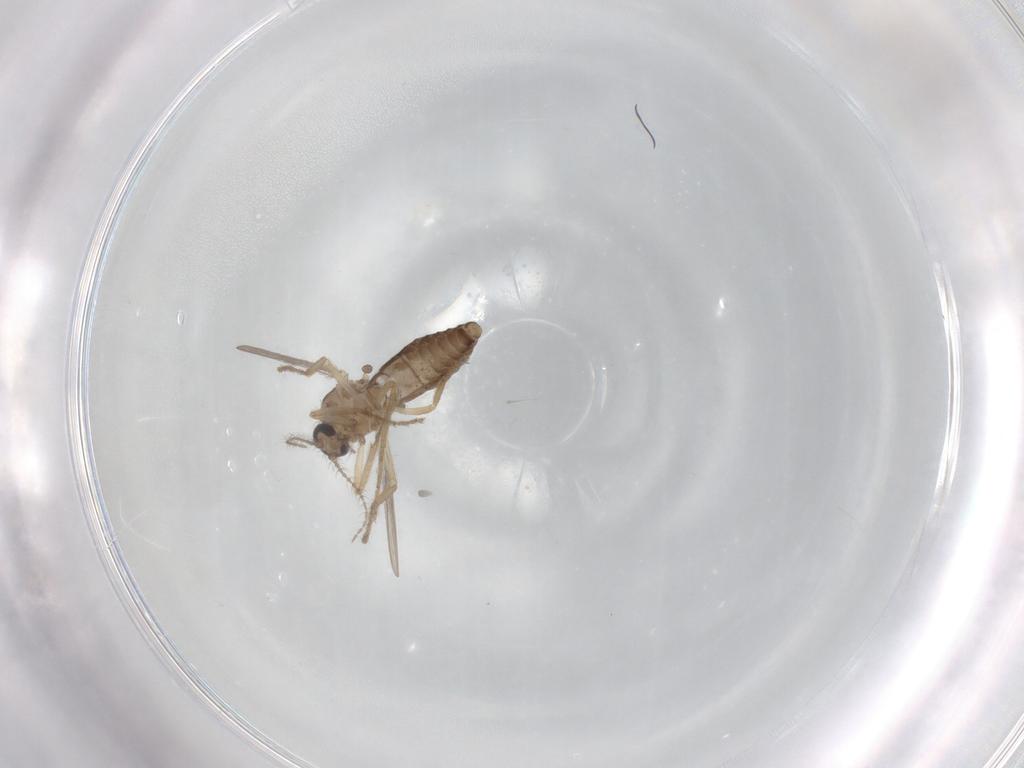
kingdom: Animalia
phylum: Arthropoda
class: Insecta
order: Diptera
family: Ceratopogonidae
